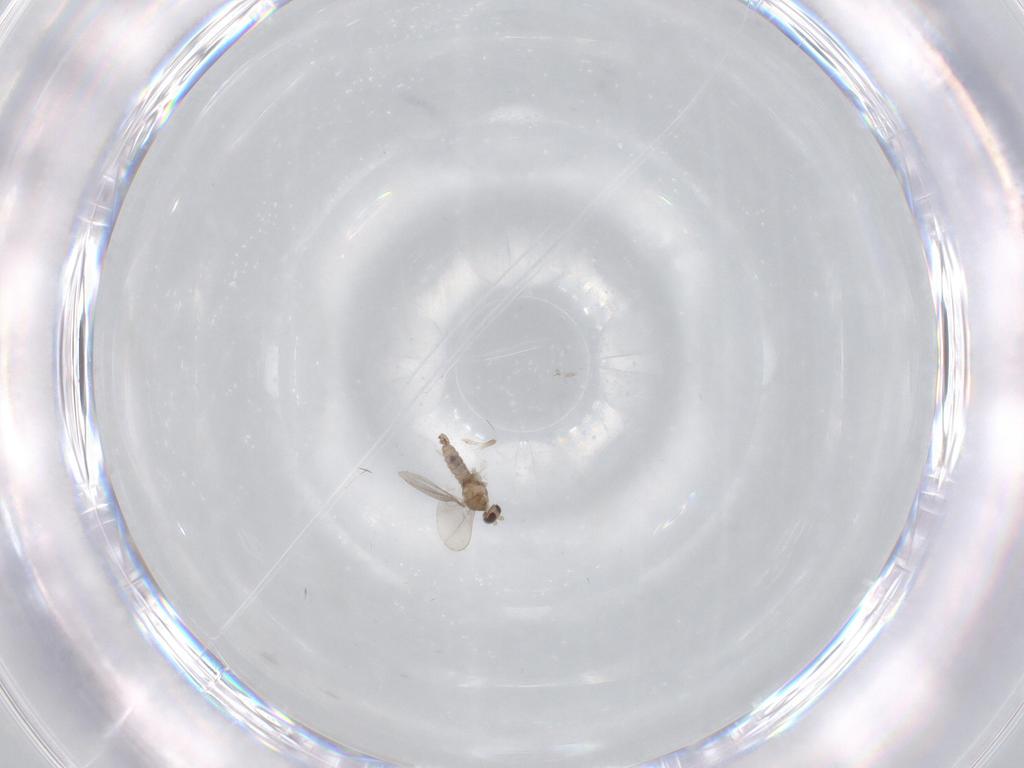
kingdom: Animalia
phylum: Arthropoda
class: Insecta
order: Diptera
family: Cecidomyiidae
